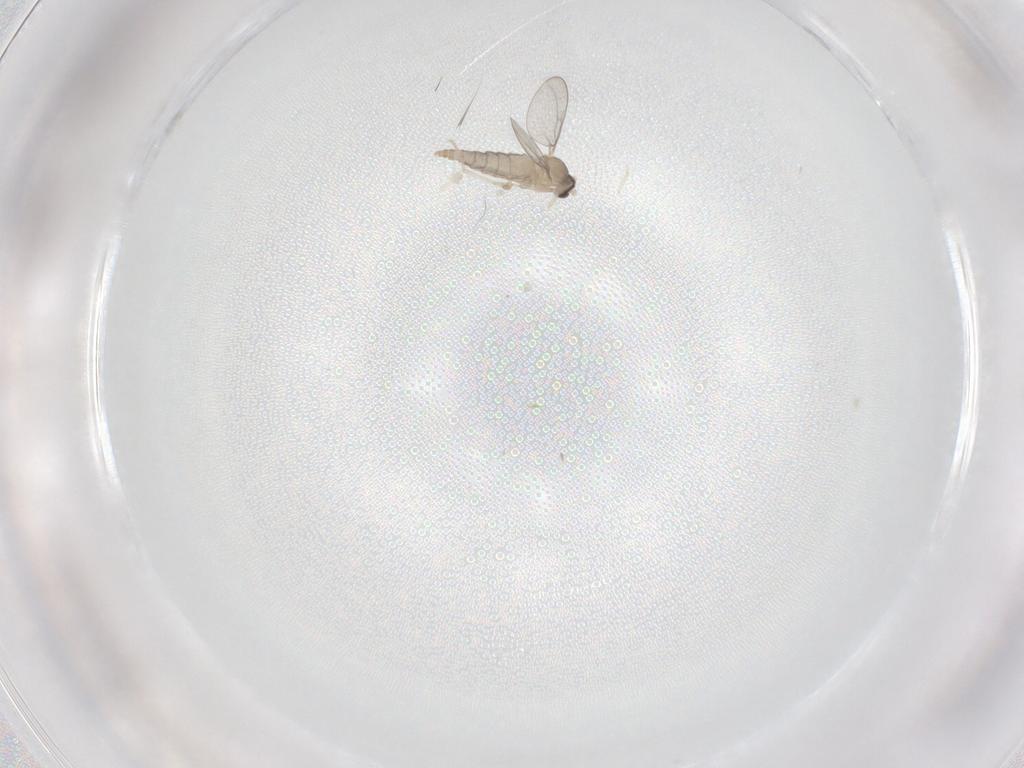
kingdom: Animalia
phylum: Arthropoda
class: Insecta
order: Diptera
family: Cecidomyiidae
